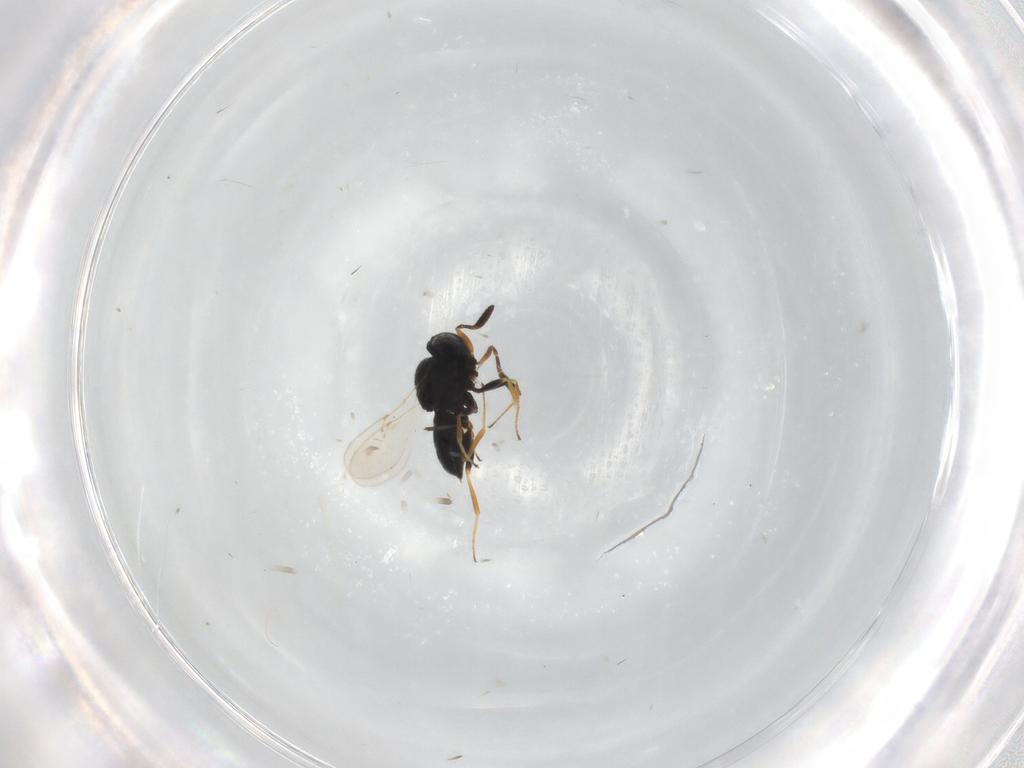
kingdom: Animalia
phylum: Arthropoda
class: Insecta
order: Coleoptera
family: Curculionidae
